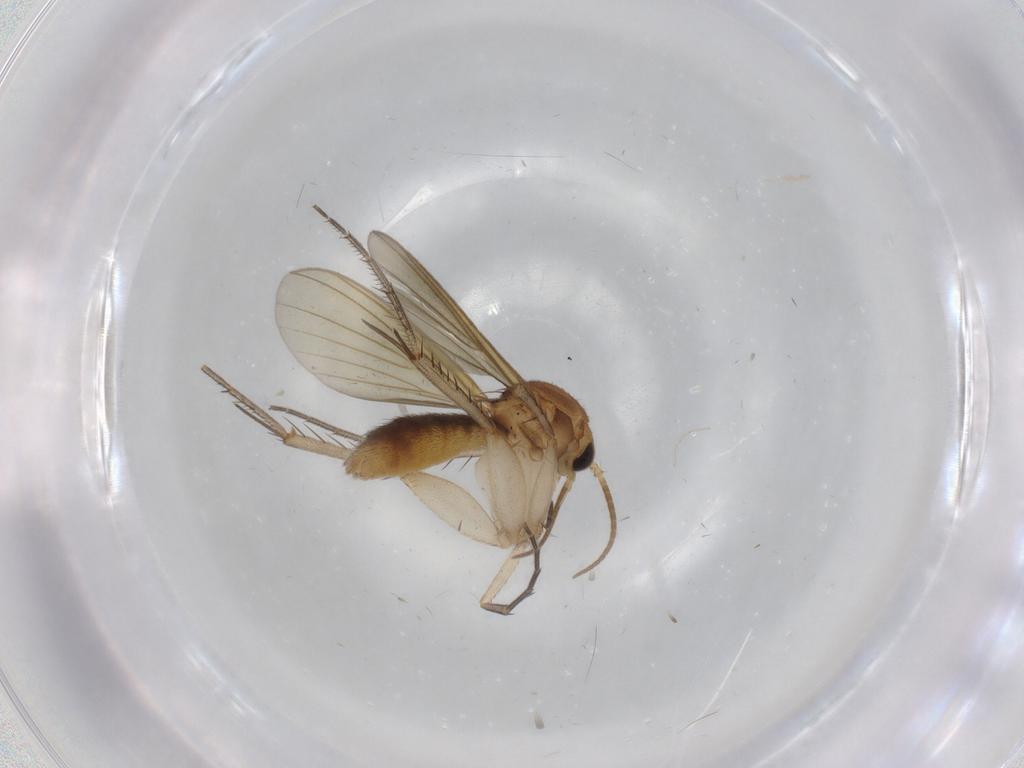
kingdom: Animalia
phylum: Arthropoda
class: Insecta
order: Diptera
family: Mycetophilidae
